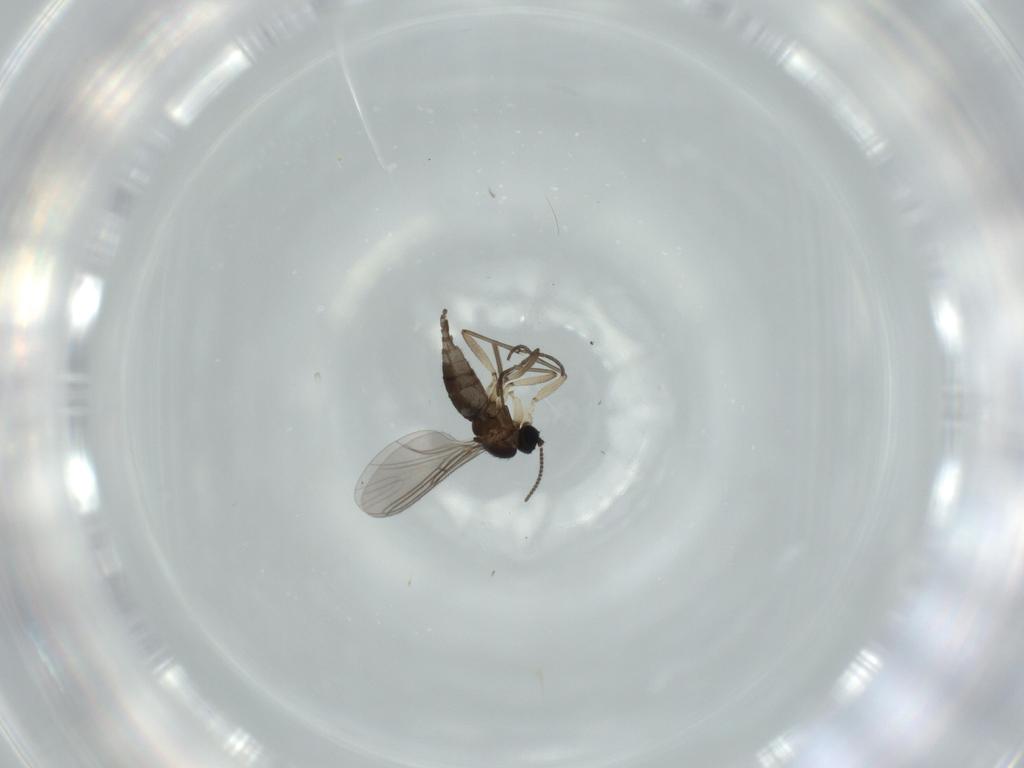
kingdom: Animalia
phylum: Arthropoda
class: Insecta
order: Diptera
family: Sciaridae
